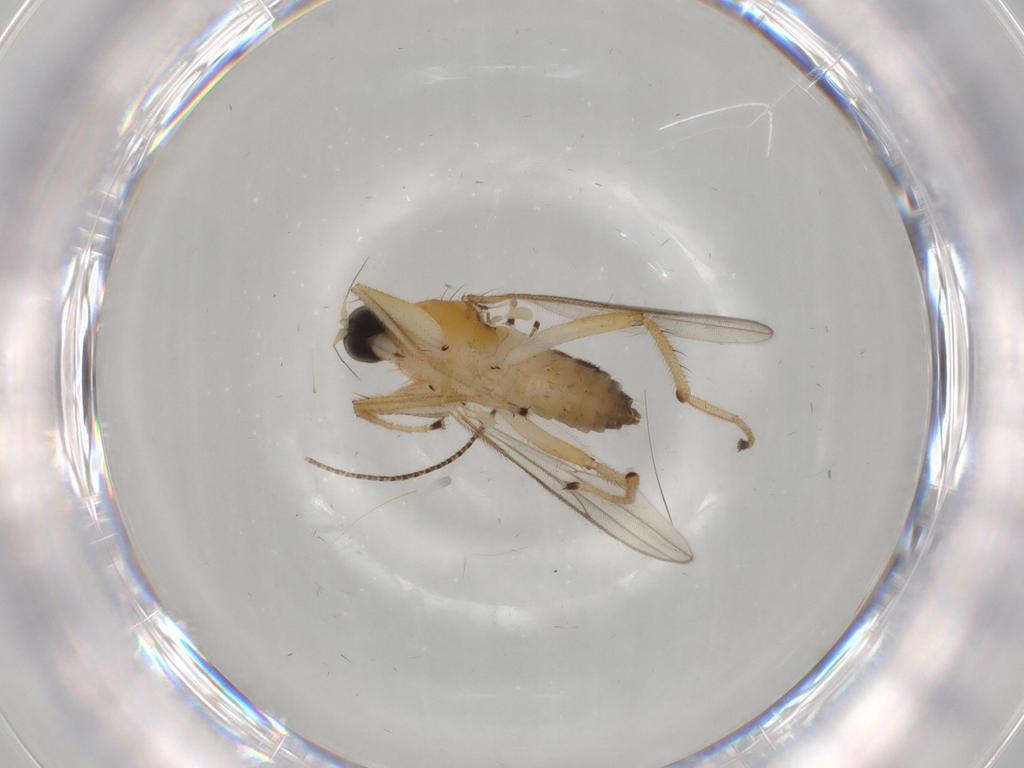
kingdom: Animalia
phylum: Arthropoda
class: Insecta
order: Diptera
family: Hybotidae
